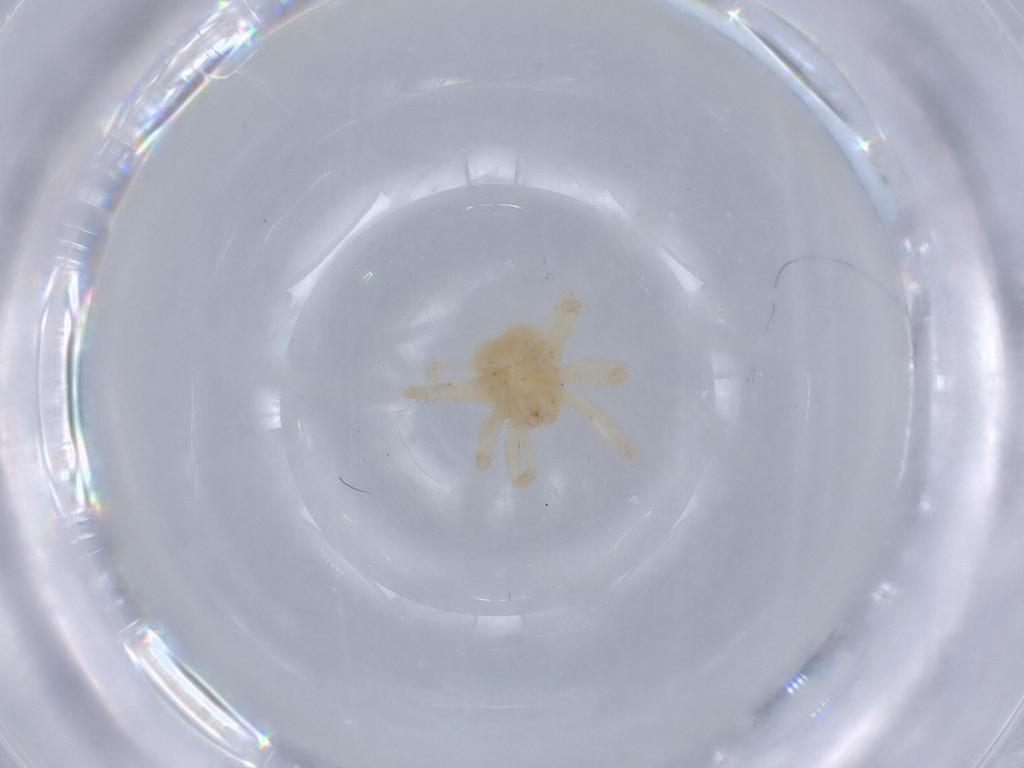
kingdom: Animalia
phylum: Arthropoda
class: Arachnida
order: Trombidiformes
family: Anystidae
